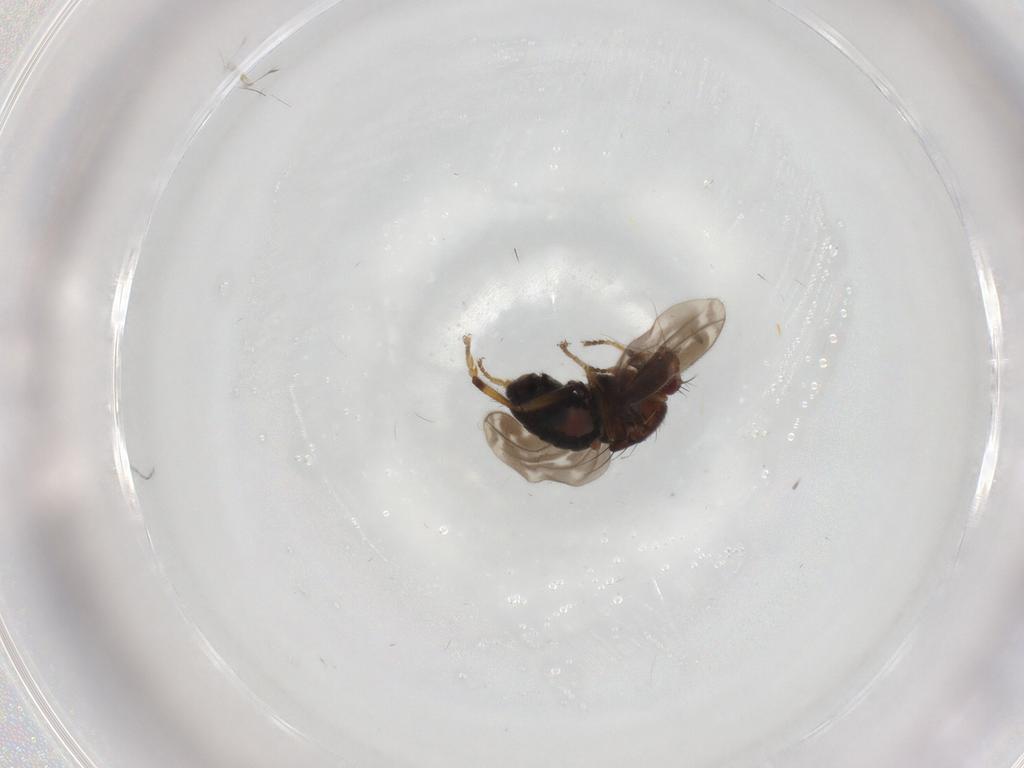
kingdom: Animalia
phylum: Arthropoda
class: Insecta
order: Diptera
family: Sphaeroceridae
